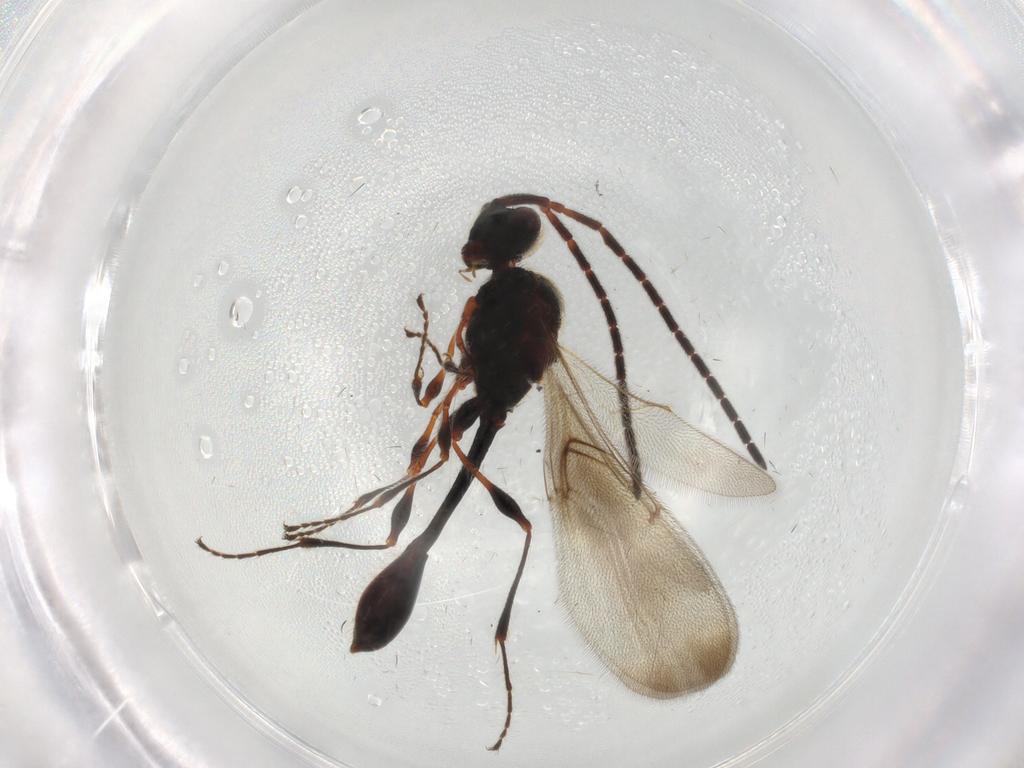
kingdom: Animalia
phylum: Arthropoda
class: Insecta
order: Hymenoptera
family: Diapriidae
